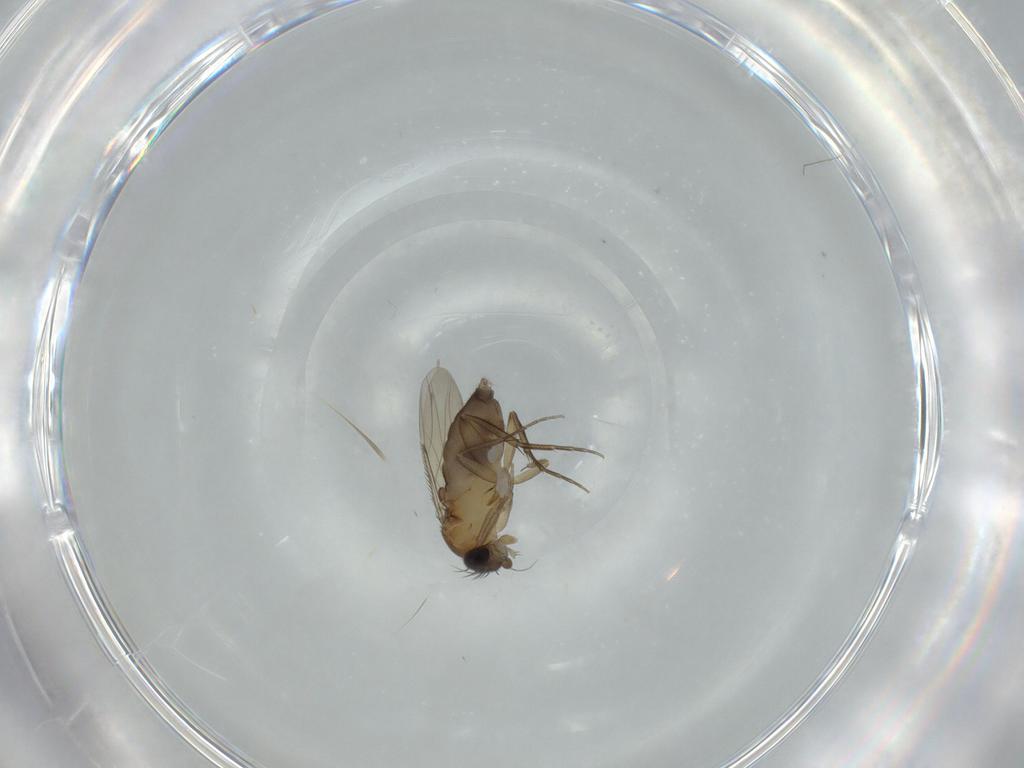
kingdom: Animalia
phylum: Arthropoda
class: Insecta
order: Diptera
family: Phoridae
